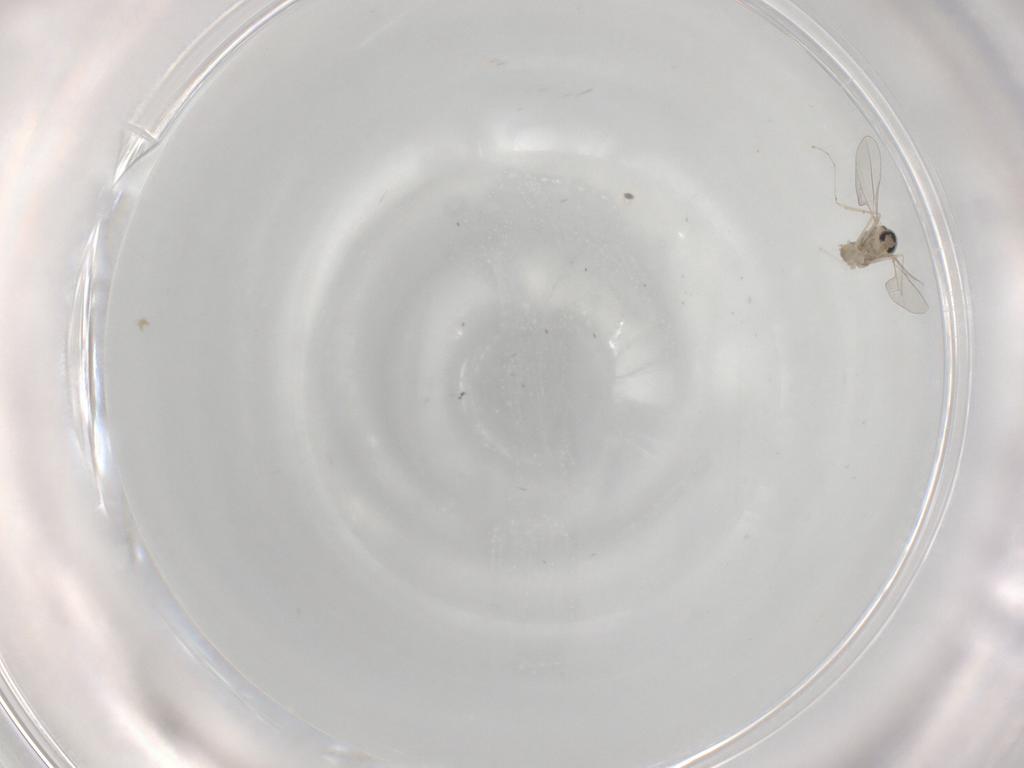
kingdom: Animalia
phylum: Arthropoda
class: Insecta
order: Diptera
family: Cecidomyiidae
